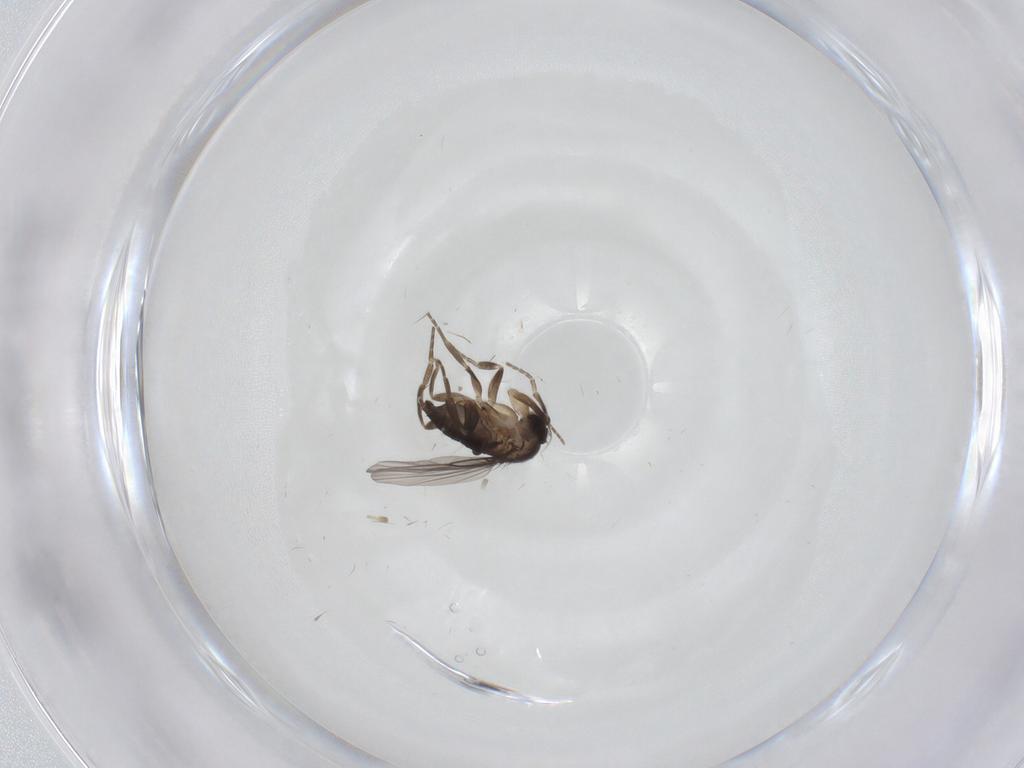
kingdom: Animalia
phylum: Arthropoda
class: Insecta
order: Diptera
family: Phoridae
